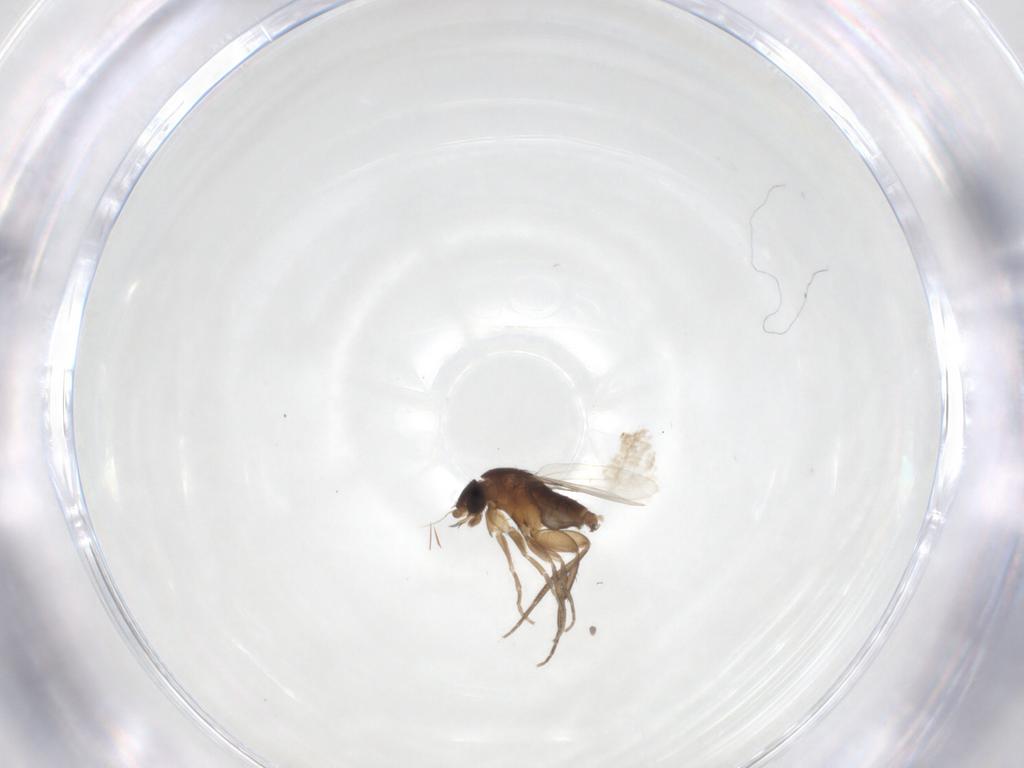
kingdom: Animalia
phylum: Arthropoda
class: Insecta
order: Diptera
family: Phoridae
